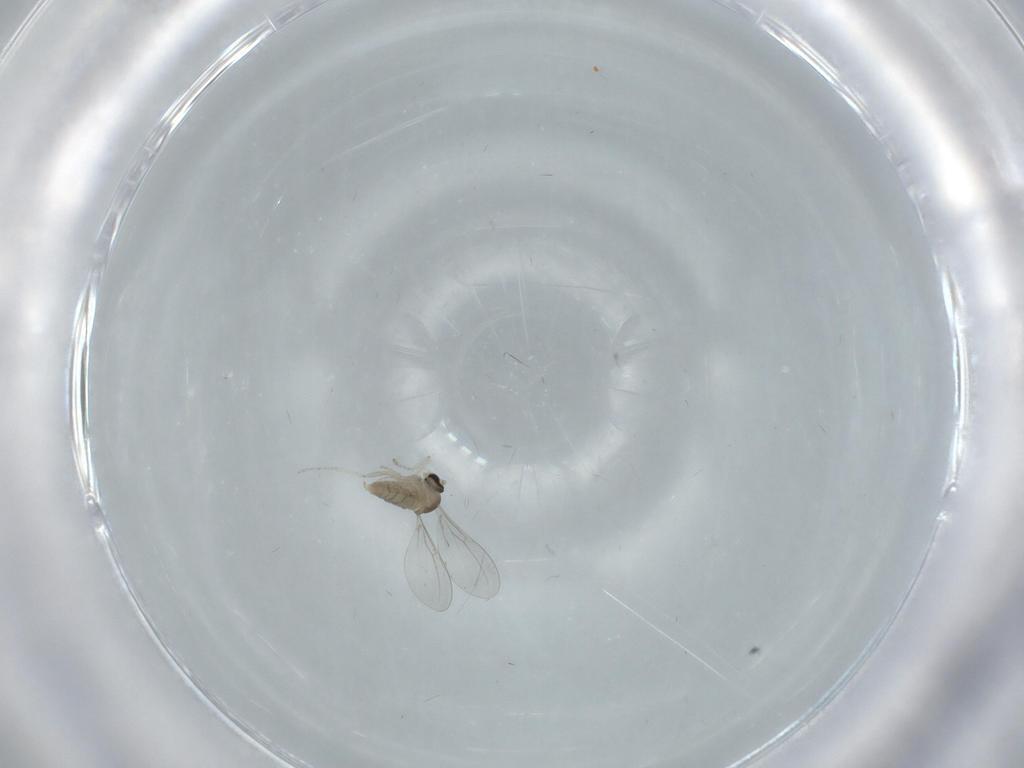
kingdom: Animalia
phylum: Arthropoda
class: Insecta
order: Diptera
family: Cecidomyiidae
